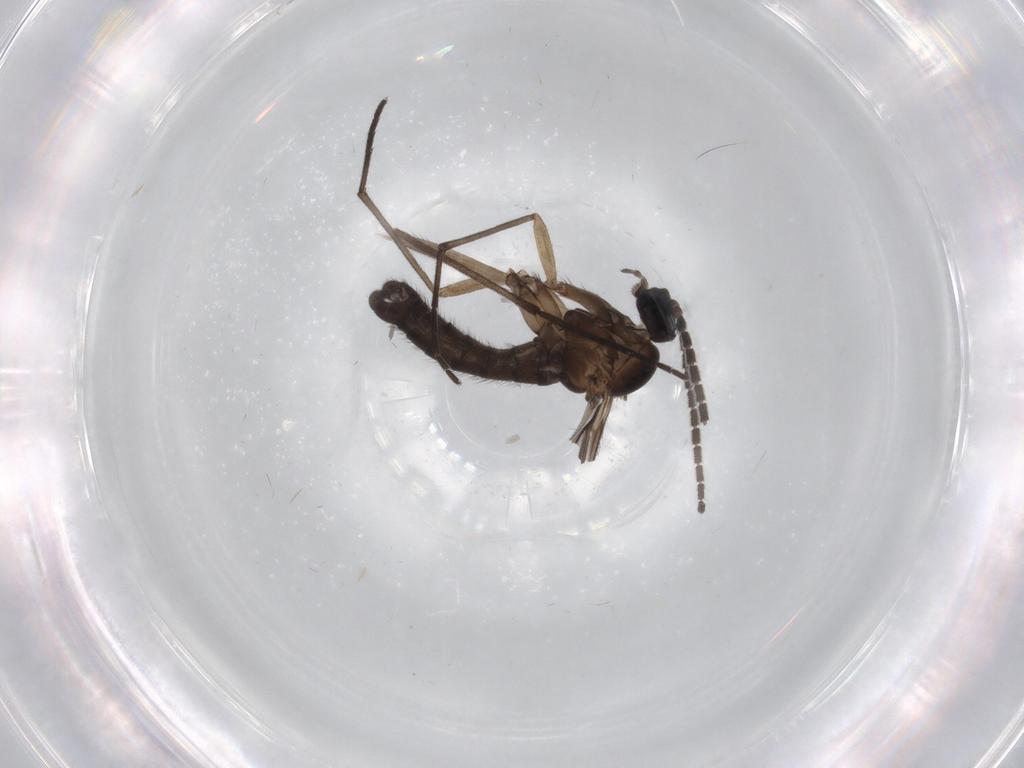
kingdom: Animalia
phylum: Arthropoda
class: Insecta
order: Diptera
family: Sciaridae
